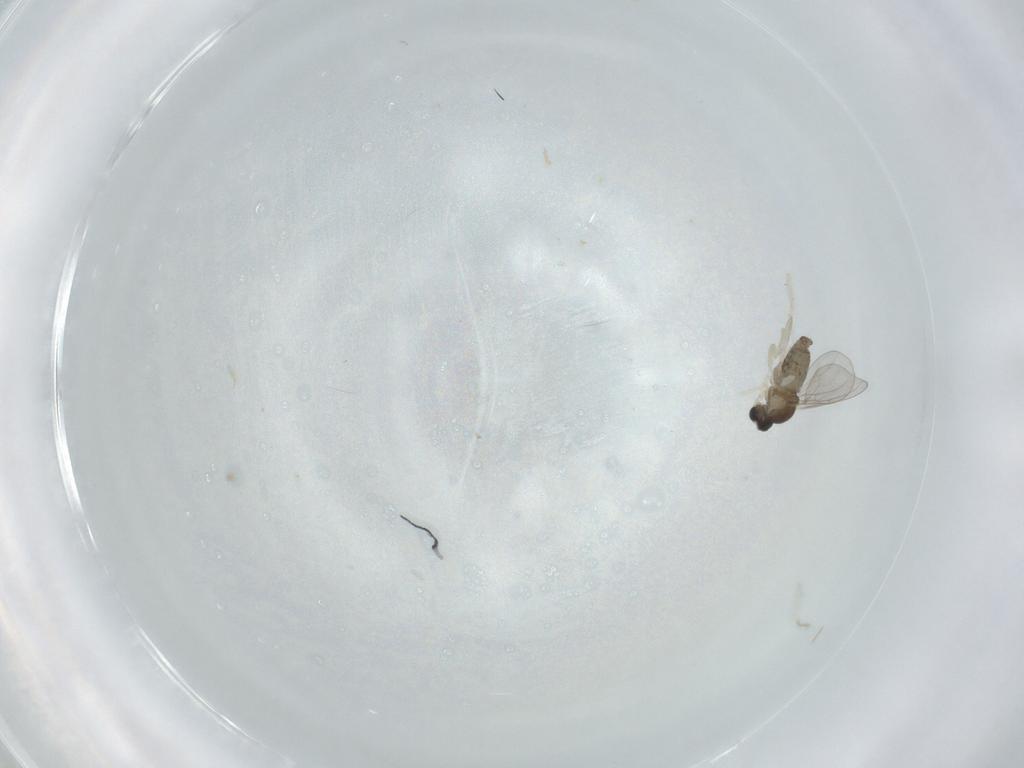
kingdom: Animalia
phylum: Arthropoda
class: Insecta
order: Diptera
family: Cecidomyiidae
